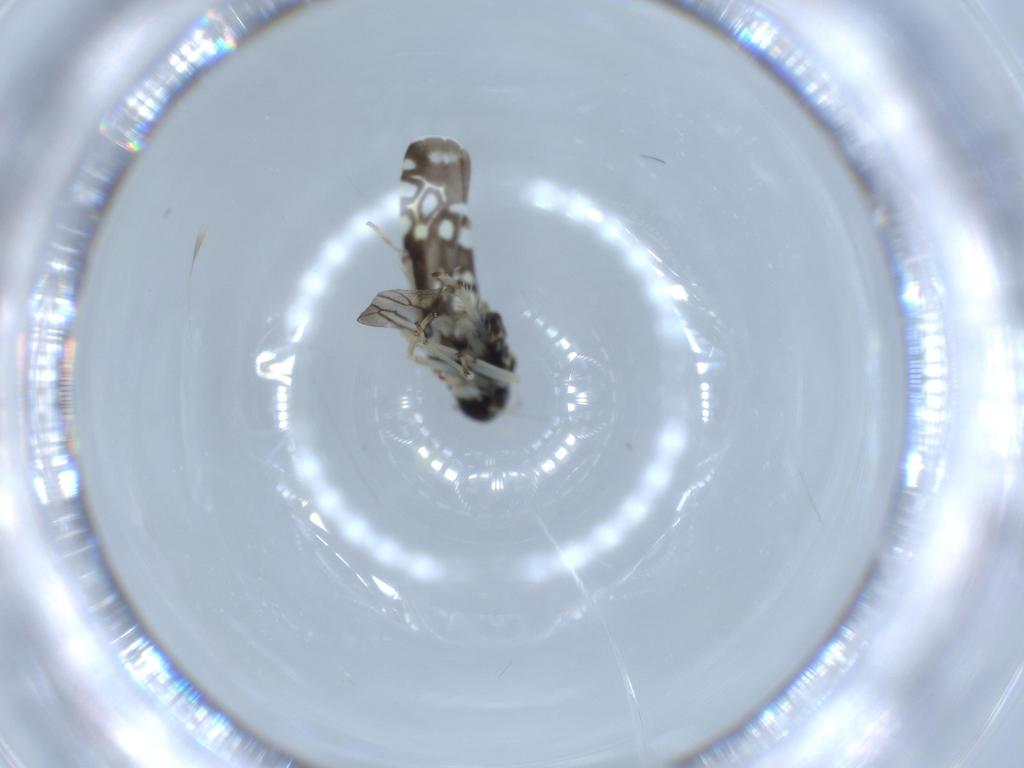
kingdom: Animalia
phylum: Arthropoda
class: Insecta
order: Hemiptera
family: Cicadellidae
